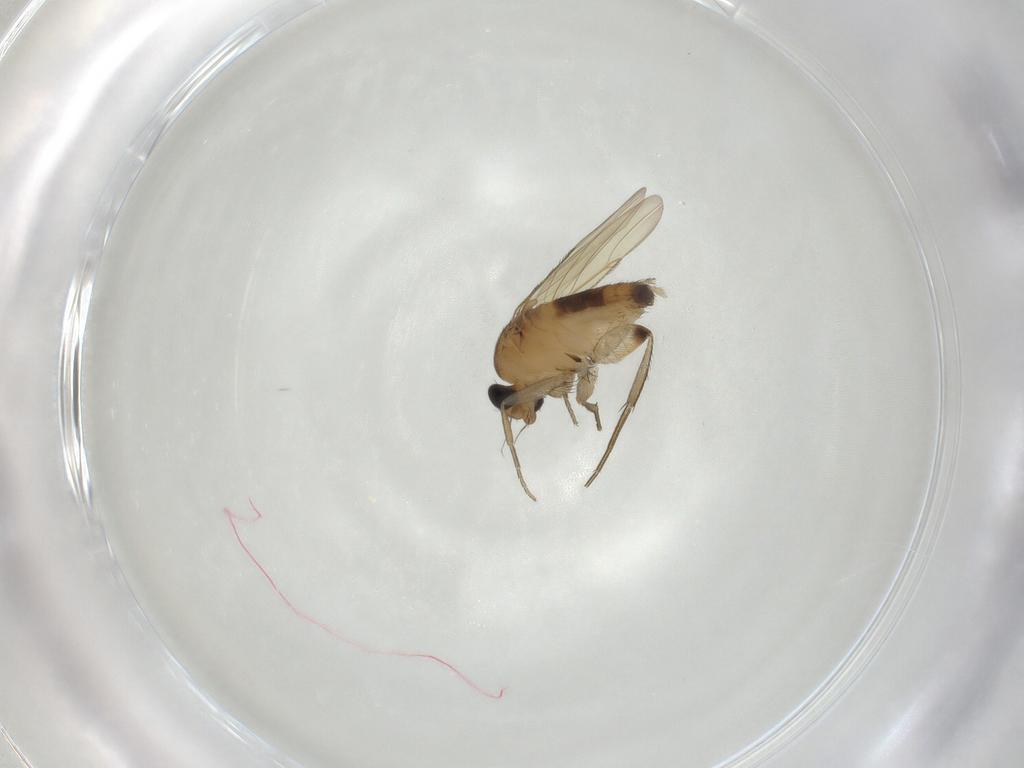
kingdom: Animalia
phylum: Arthropoda
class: Insecta
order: Diptera
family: Phoridae
